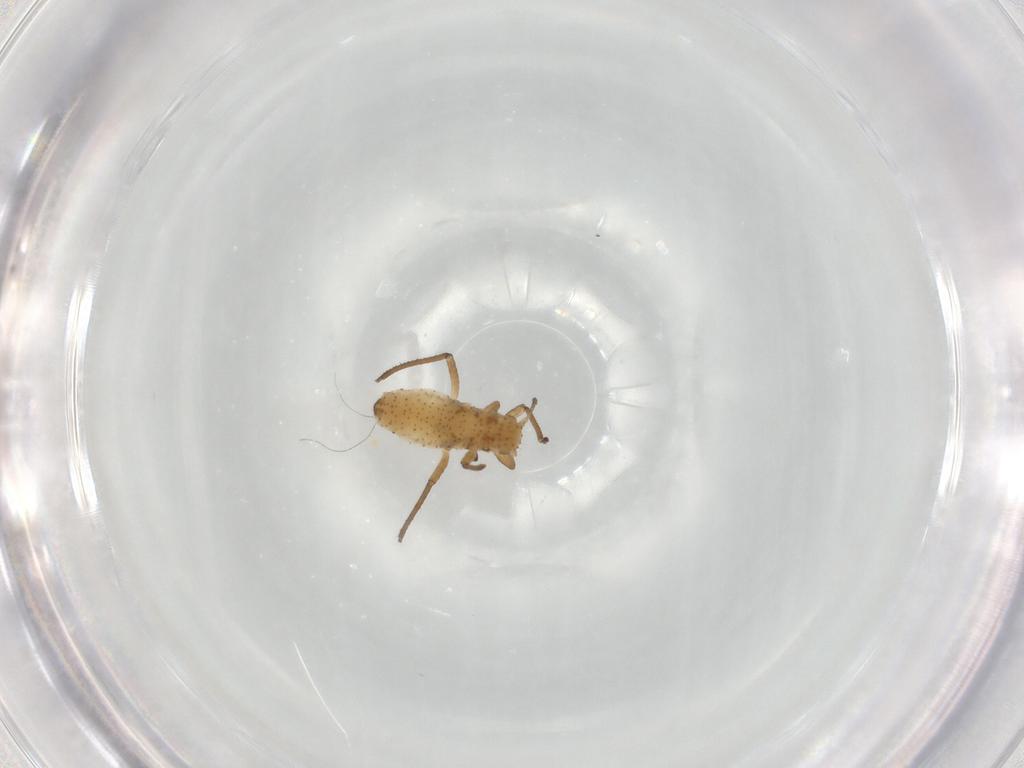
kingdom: Animalia
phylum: Arthropoda
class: Insecta
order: Hemiptera
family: Aphididae
